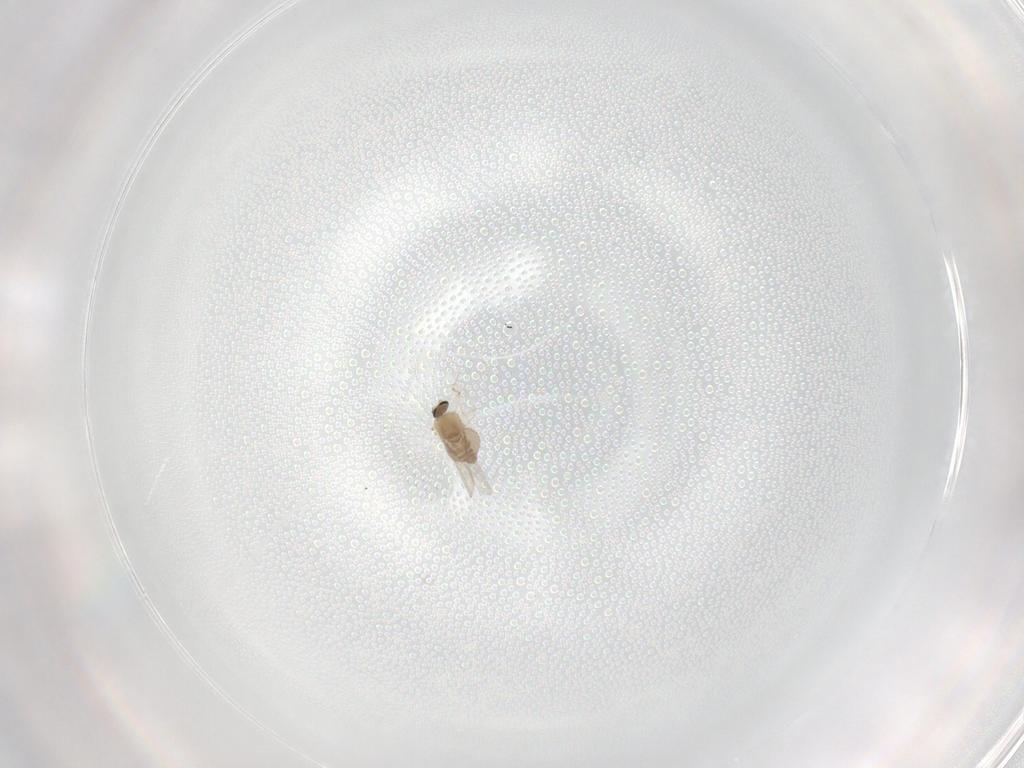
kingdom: Animalia
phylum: Arthropoda
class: Insecta
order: Diptera
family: Ceratopogonidae
